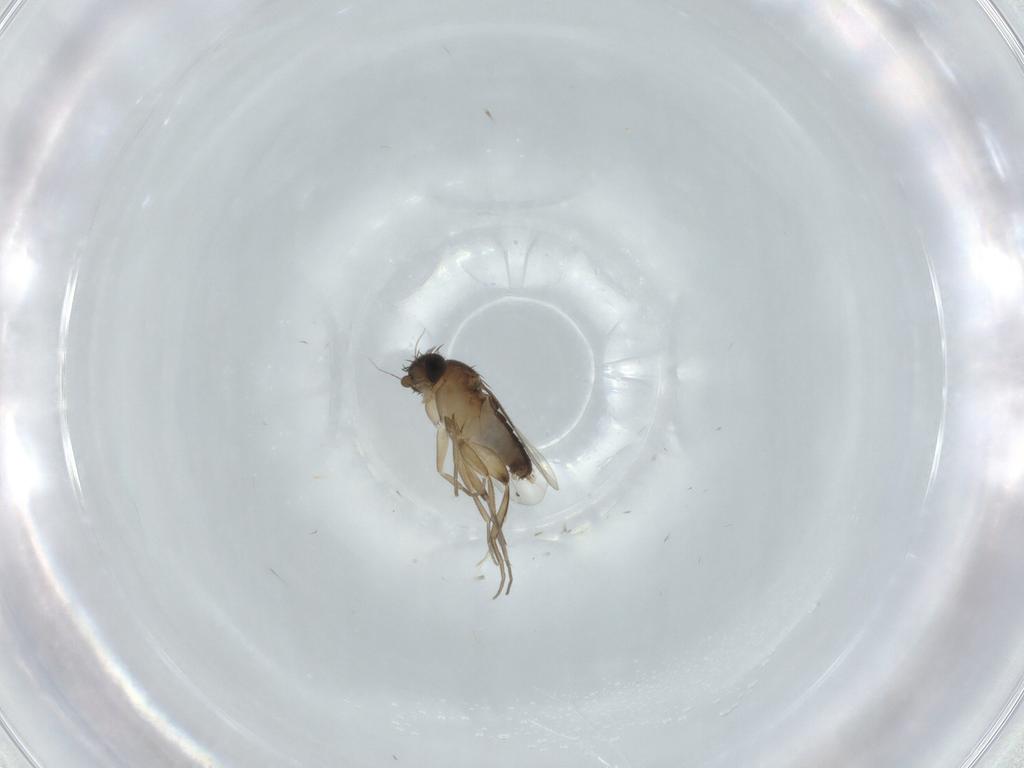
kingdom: Animalia
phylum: Arthropoda
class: Insecta
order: Diptera
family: Phoridae
